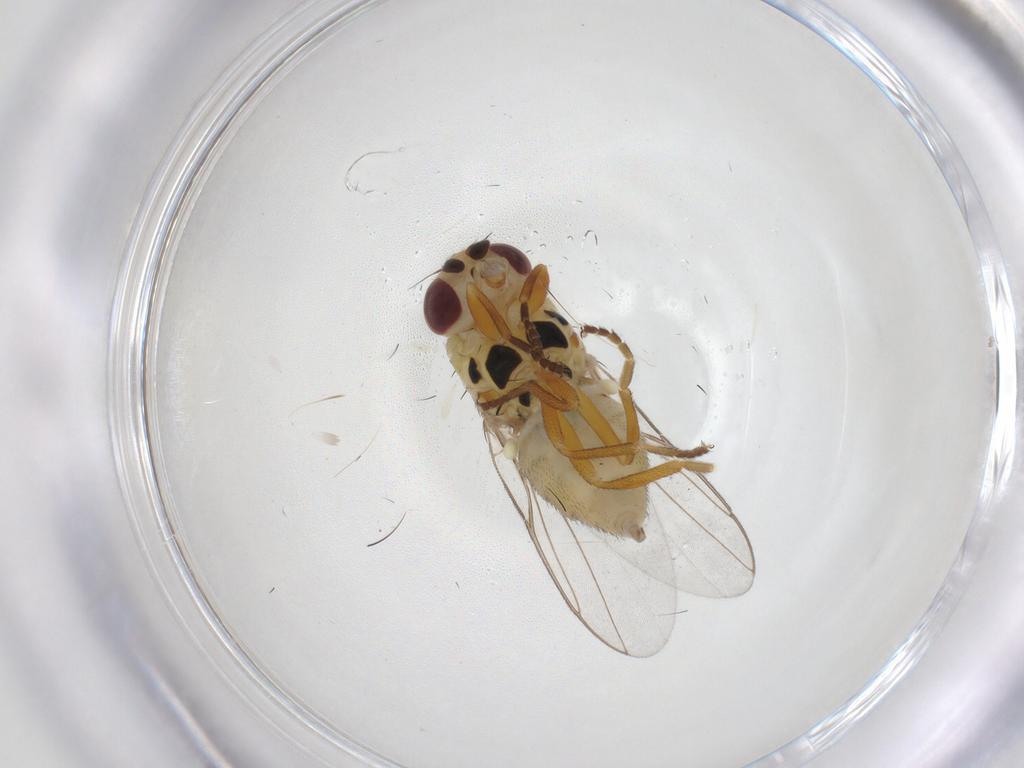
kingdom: Animalia
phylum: Arthropoda
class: Insecta
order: Diptera
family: Chloropidae
